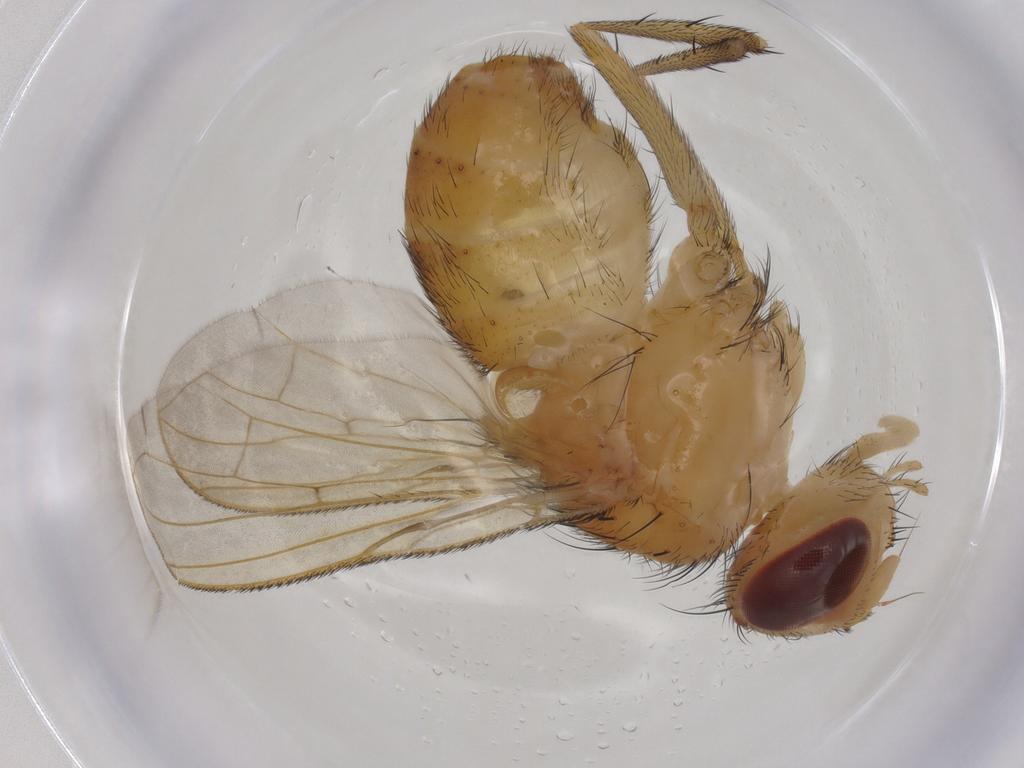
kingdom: Animalia
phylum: Arthropoda
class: Insecta
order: Diptera
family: Tachinidae
